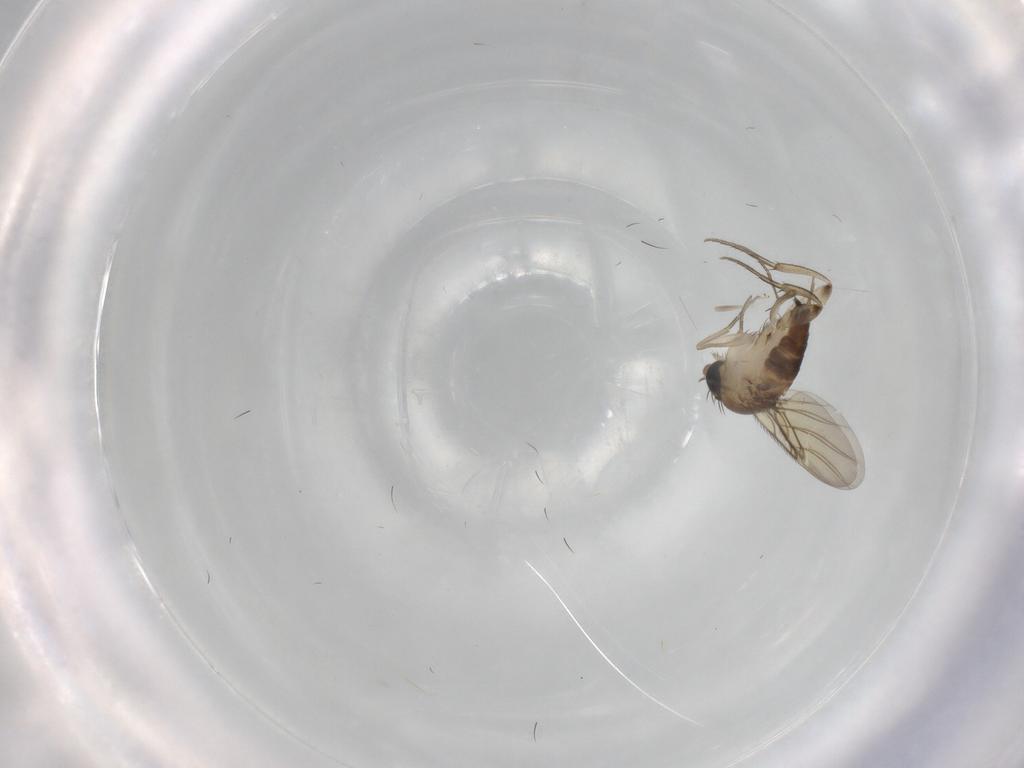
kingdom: Animalia
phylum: Arthropoda
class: Insecta
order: Diptera
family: Phoridae
